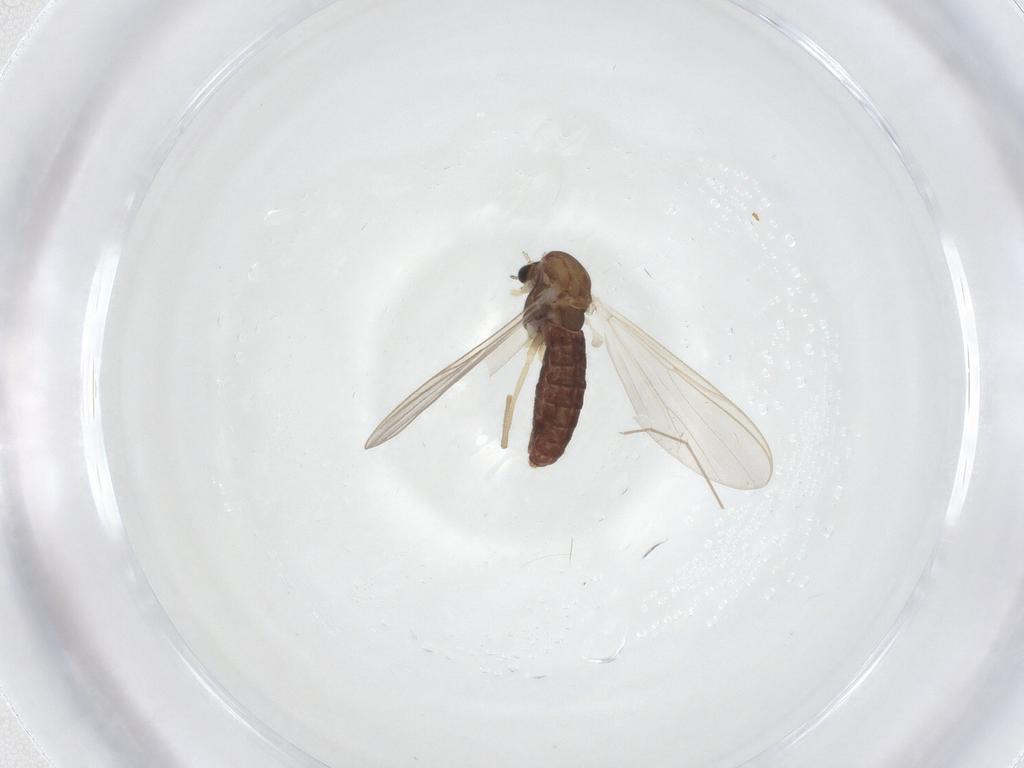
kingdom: Animalia
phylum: Arthropoda
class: Insecta
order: Diptera
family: Chironomidae
